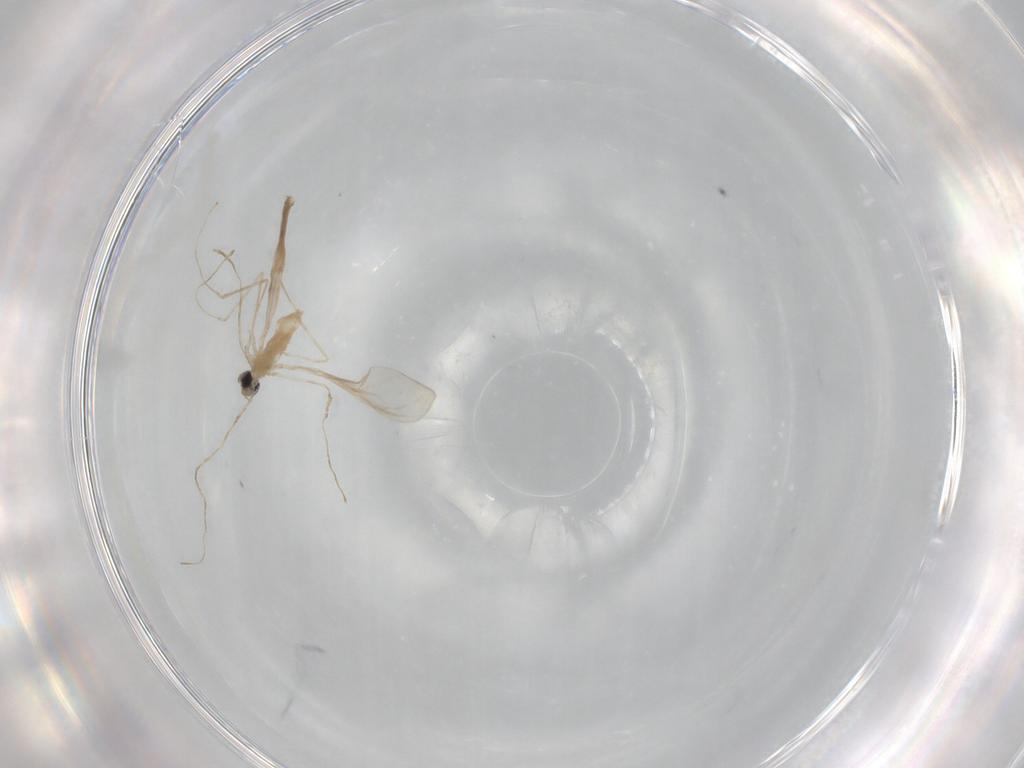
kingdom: Animalia
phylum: Arthropoda
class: Insecta
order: Diptera
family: Cecidomyiidae
